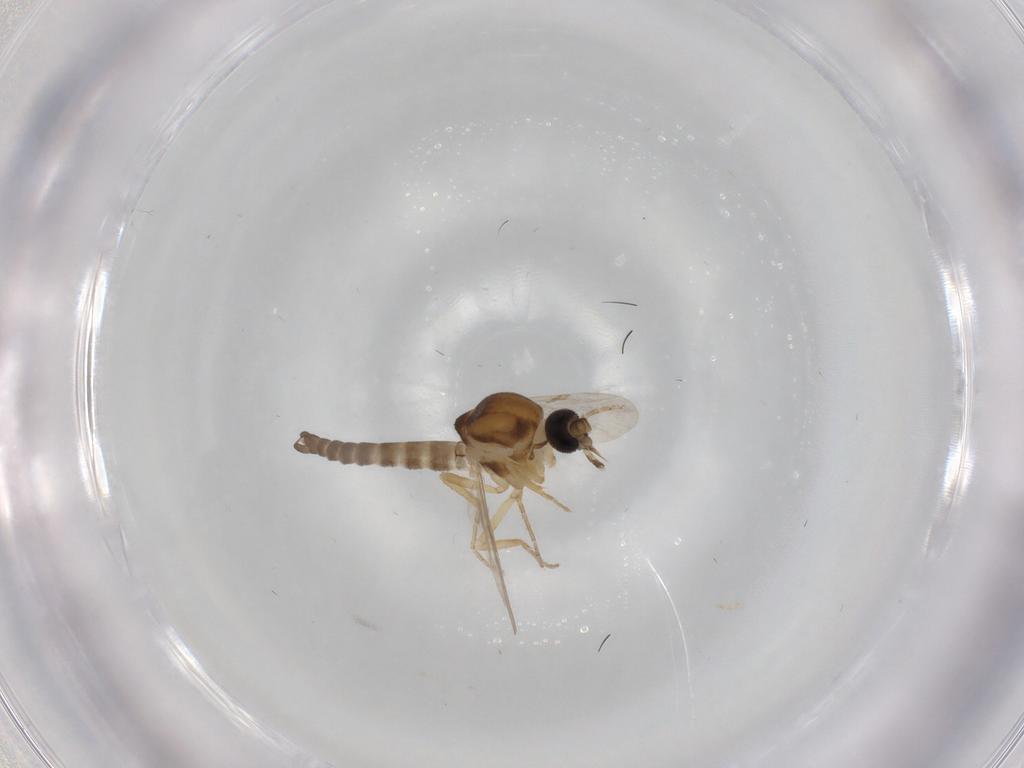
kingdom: Animalia
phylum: Arthropoda
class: Insecta
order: Diptera
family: Ceratopogonidae
